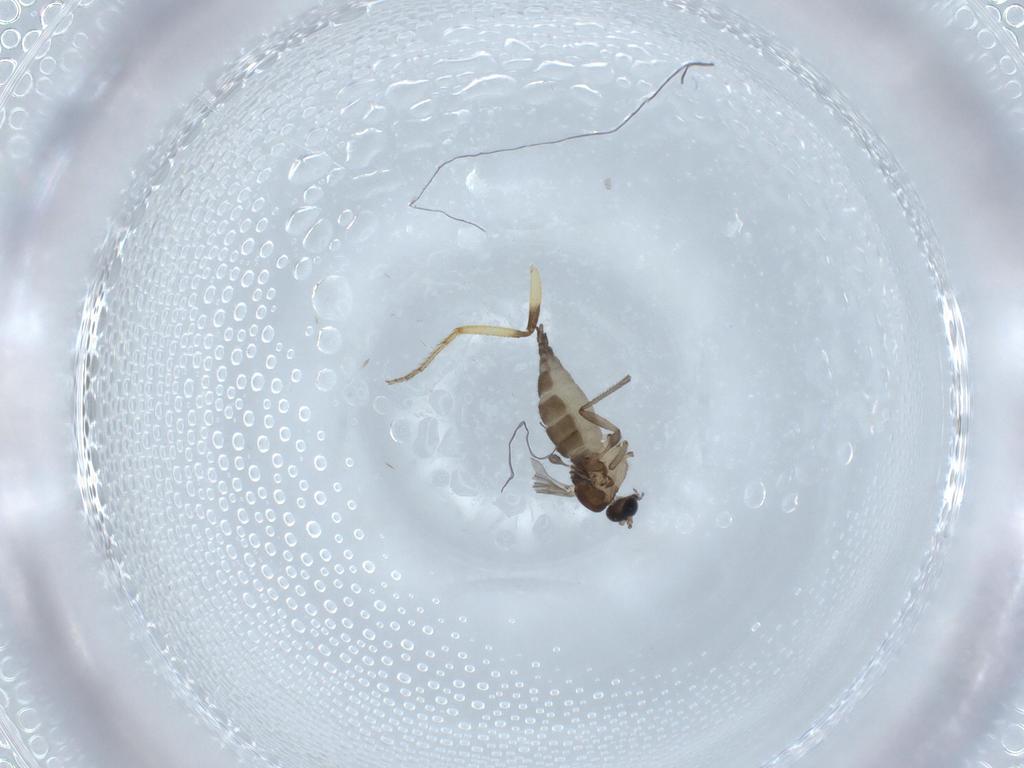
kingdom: Animalia
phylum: Arthropoda
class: Insecta
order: Diptera
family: Sciaridae
